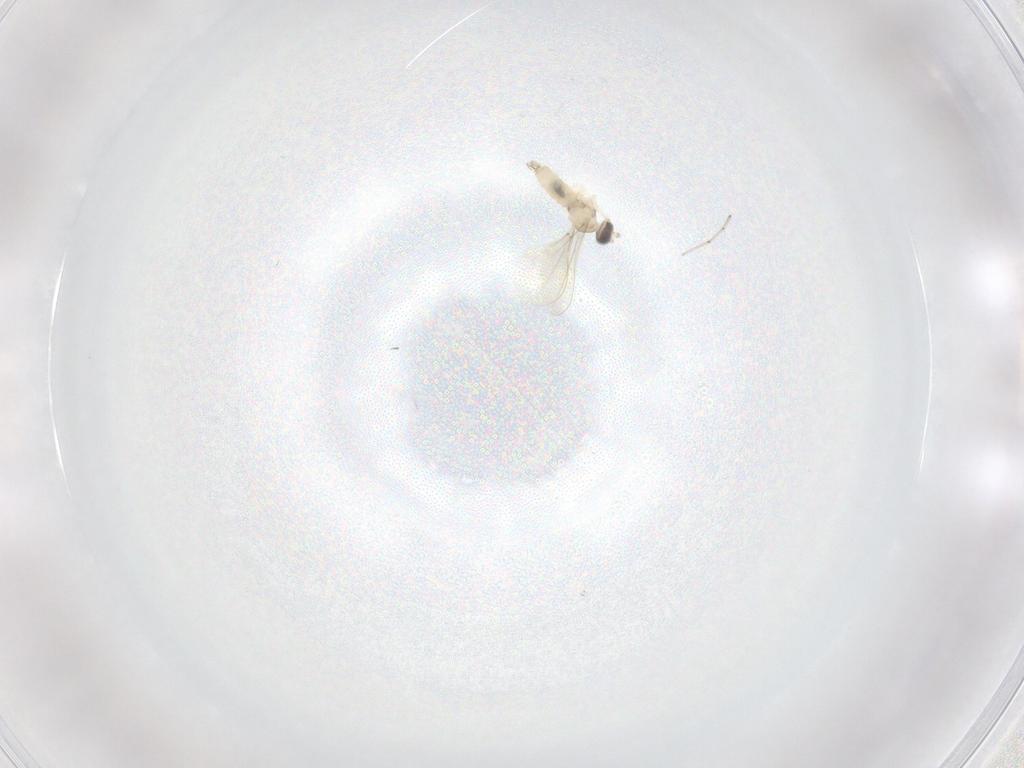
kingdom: Animalia
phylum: Arthropoda
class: Insecta
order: Diptera
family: Cecidomyiidae
